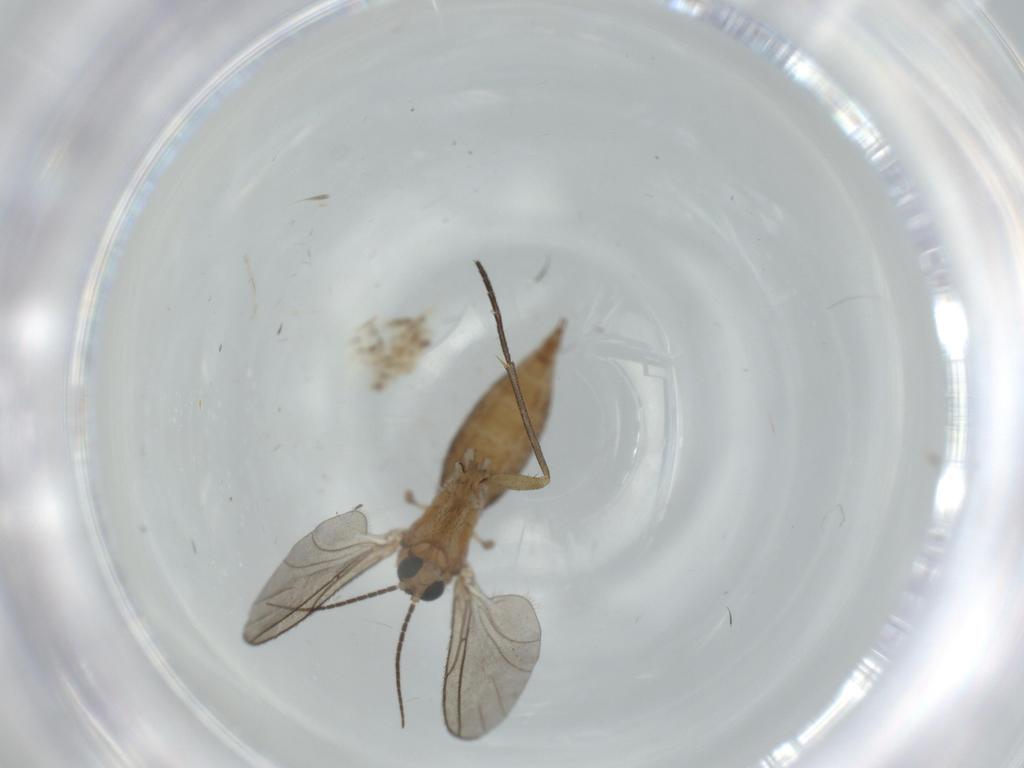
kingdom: Animalia
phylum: Arthropoda
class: Insecta
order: Diptera
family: Sciaridae
